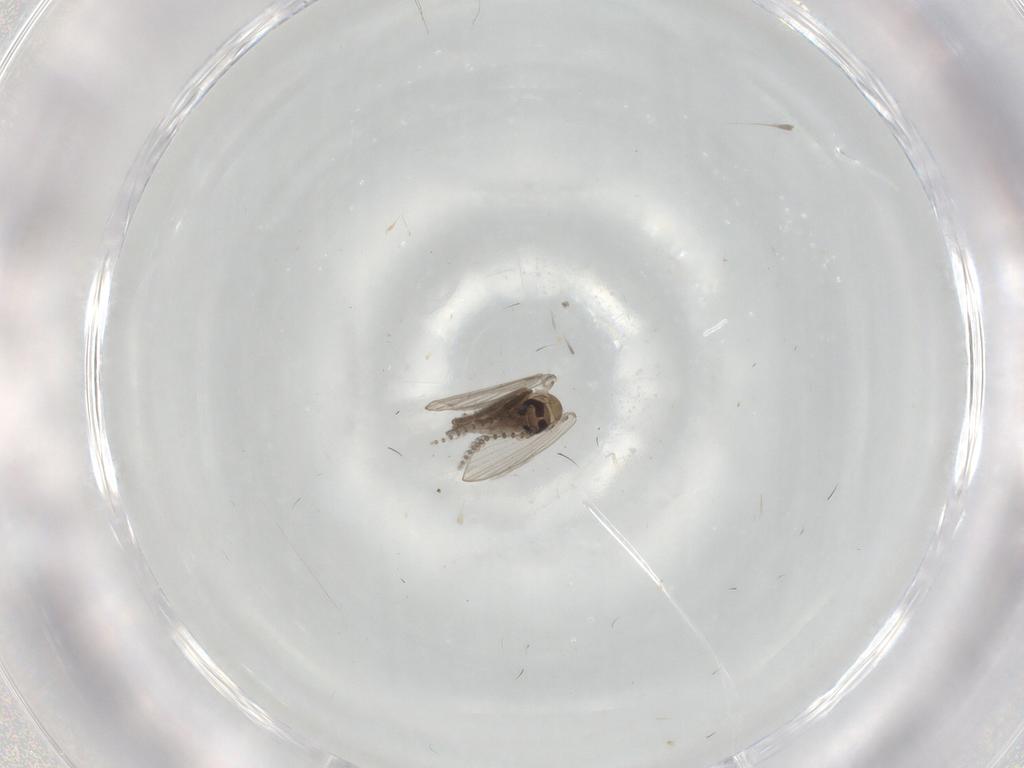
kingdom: Animalia
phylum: Arthropoda
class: Insecta
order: Diptera
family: Psychodidae
